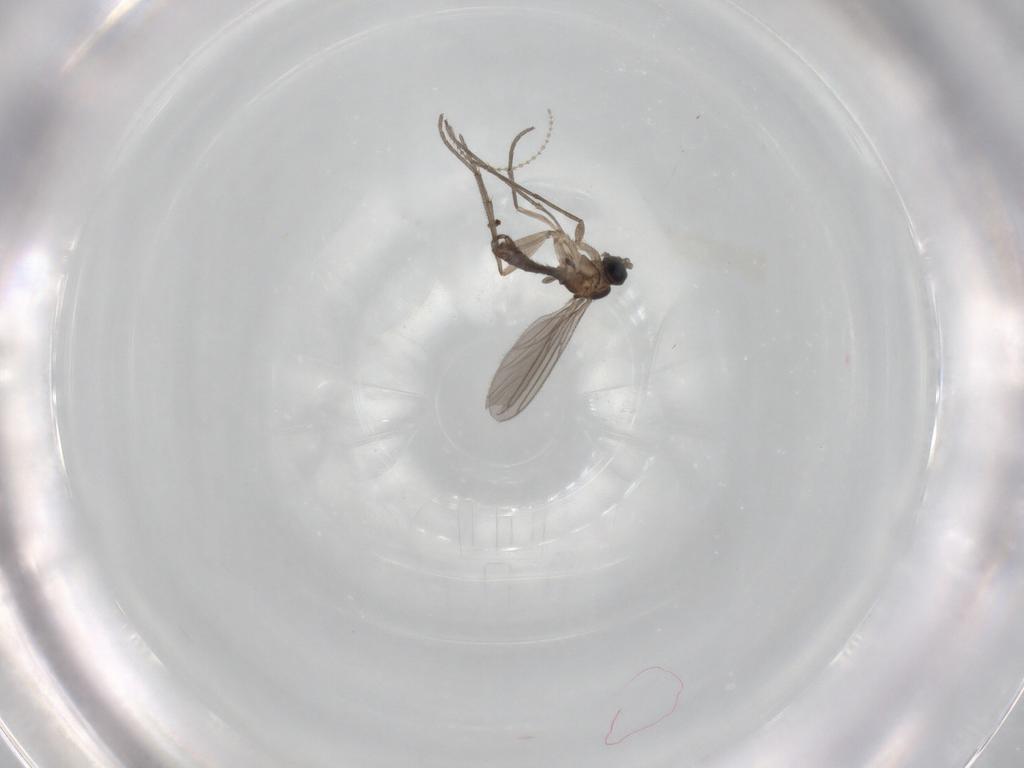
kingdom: Animalia
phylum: Arthropoda
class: Insecta
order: Diptera
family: Sciaridae
